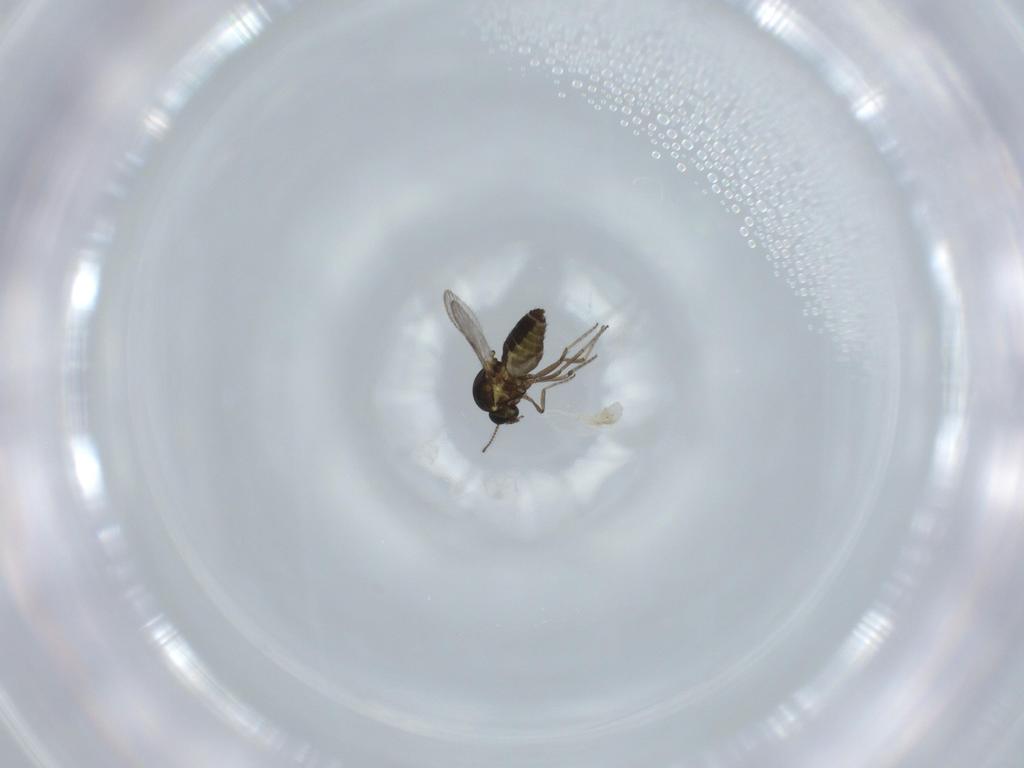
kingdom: Animalia
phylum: Arthropoda
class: Insecta
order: Diptera
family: Ceratopogonidae
